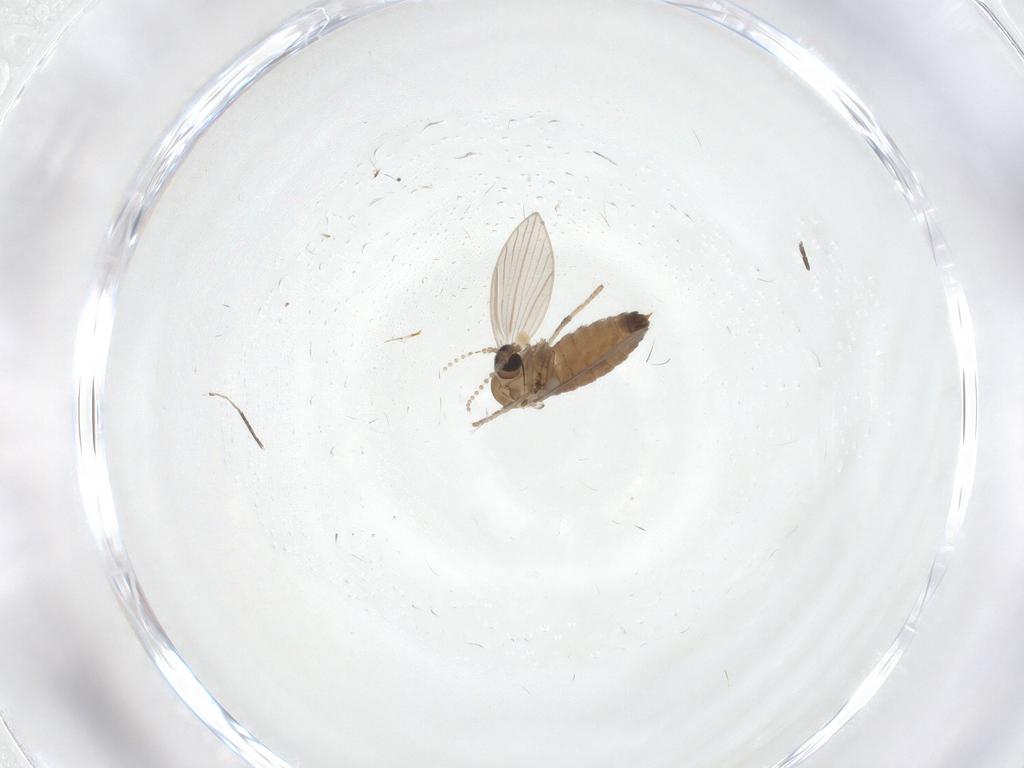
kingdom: Animalia
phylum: Arthropoda
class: Insecta
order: Diptera
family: Psychodidae
